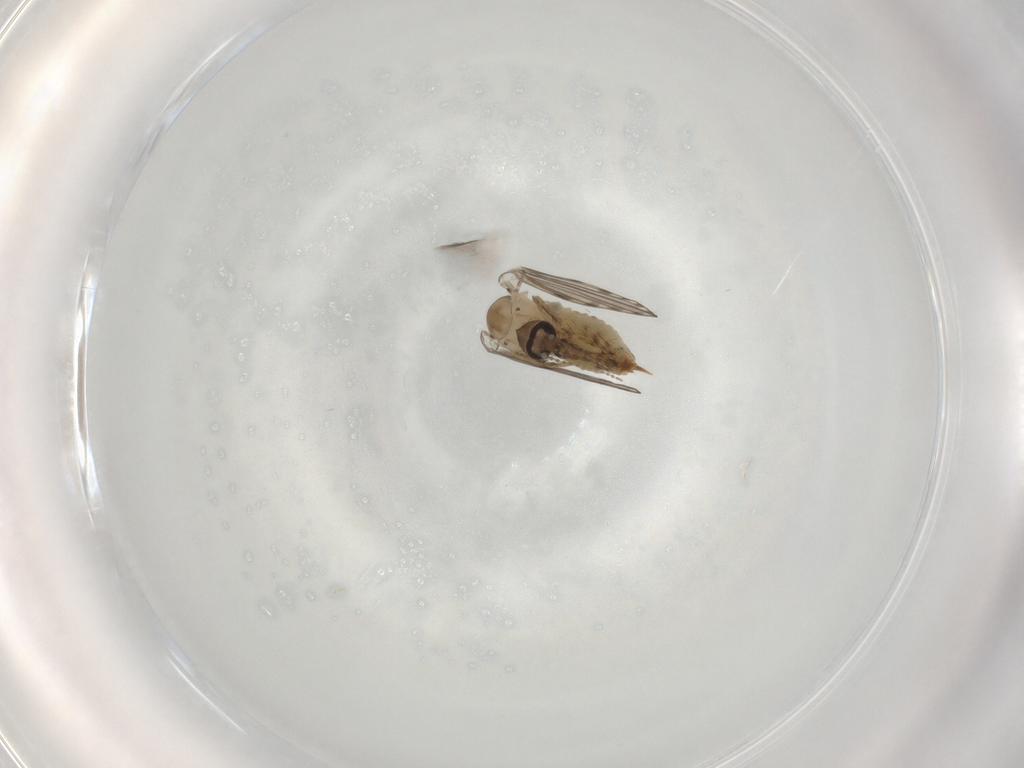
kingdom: Animalia
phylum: Arthropoda
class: Insecta
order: Diptera
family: Psychodidae
